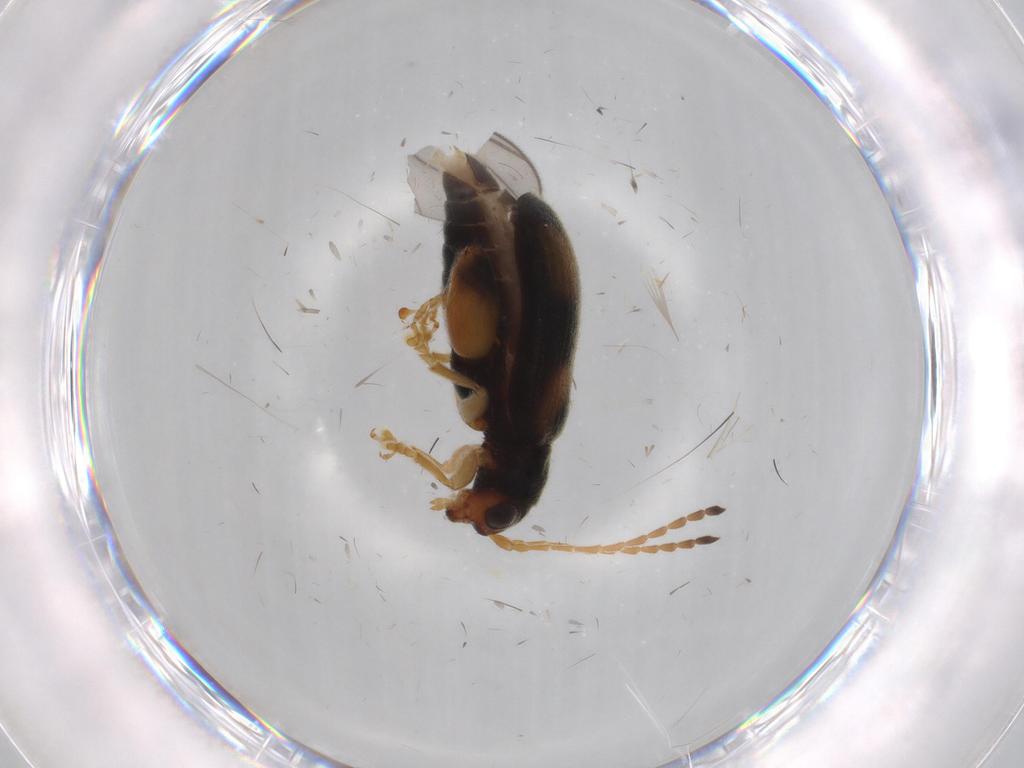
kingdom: Animalia
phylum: Arthropoda
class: Insecta
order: Coleoptera
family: Chrysomelidae
